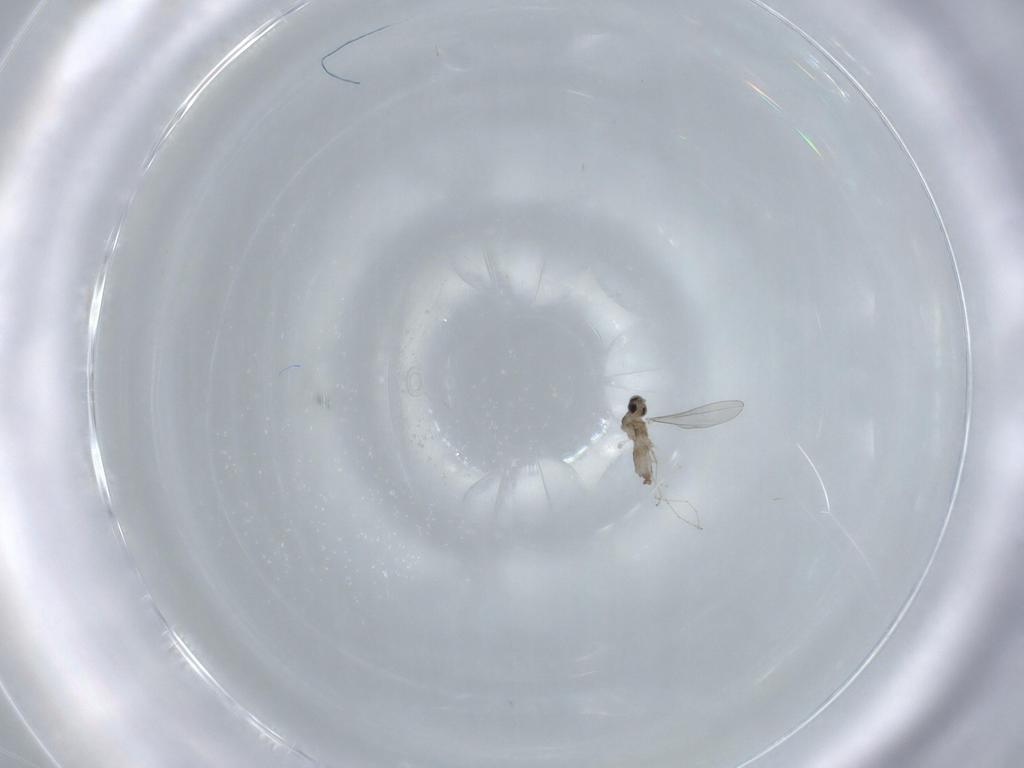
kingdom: Animalia
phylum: Arthropoda
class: Insecta
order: Diptera
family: Cecidomyiidae
